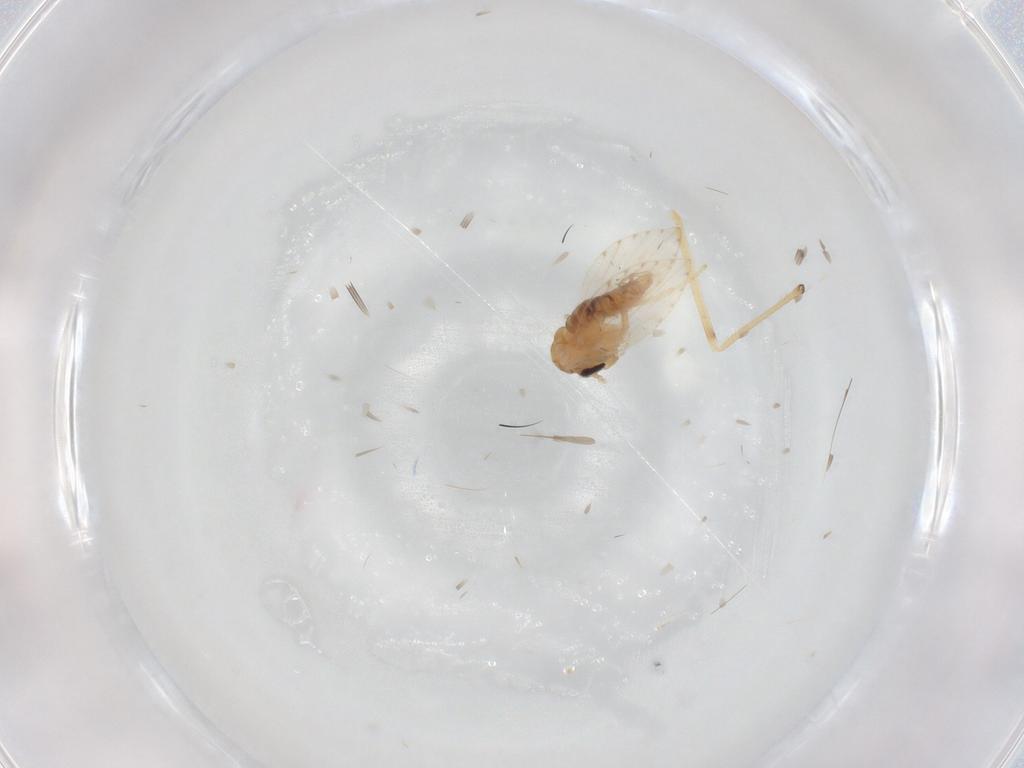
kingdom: Animalia
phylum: Arthropoda
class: Insecta
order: Diptera
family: Psychodidae
